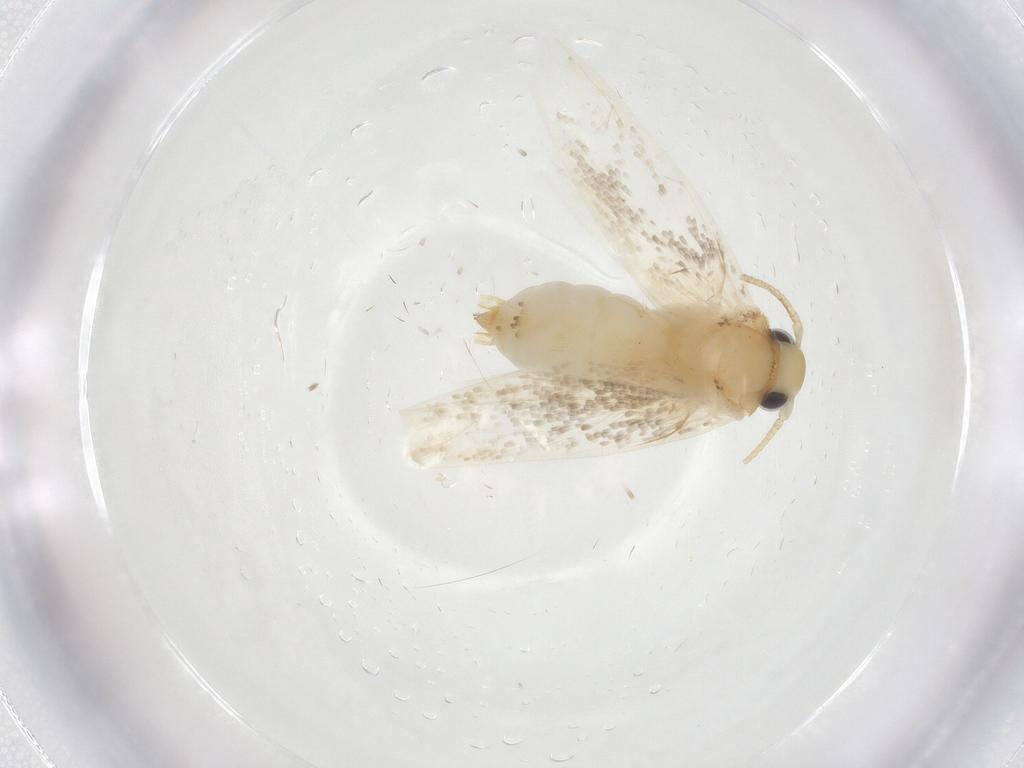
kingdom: Animalia
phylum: Arthropoda
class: Insecta
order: Lepidoptera
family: Erebidae
